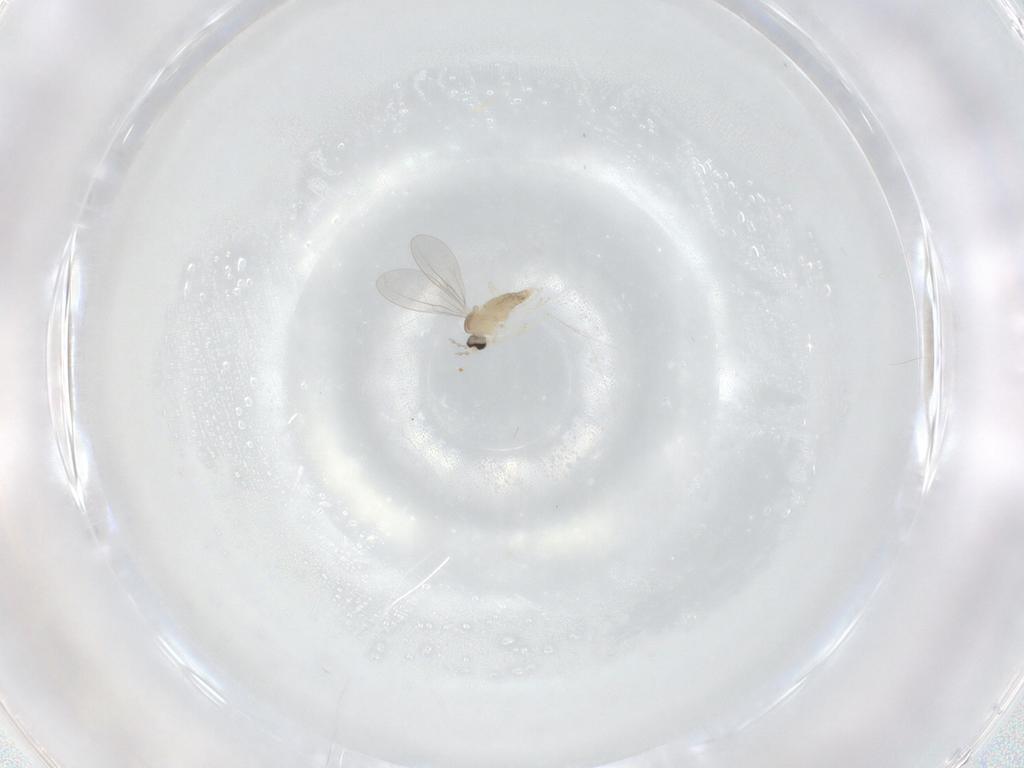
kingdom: Animalia
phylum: Arthropoda
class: Insecta
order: Diptera
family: Cecidomyiidae
